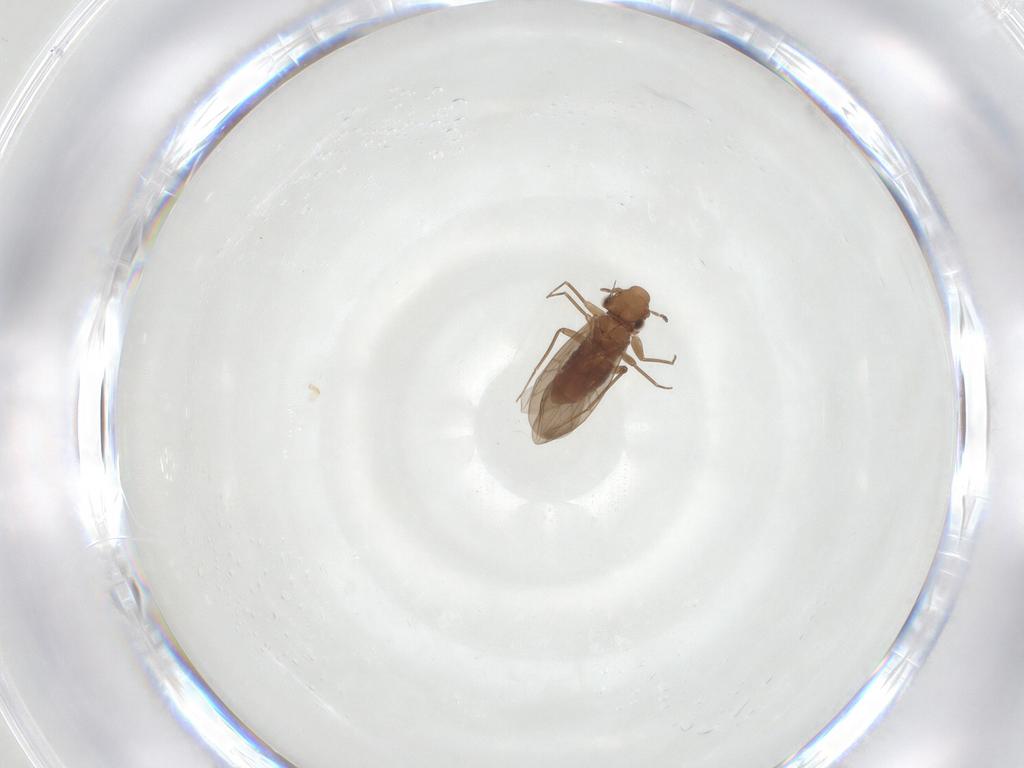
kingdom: Animalia
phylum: Arthropoda
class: Insecta
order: Psocodea
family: Lepidopsocidae
